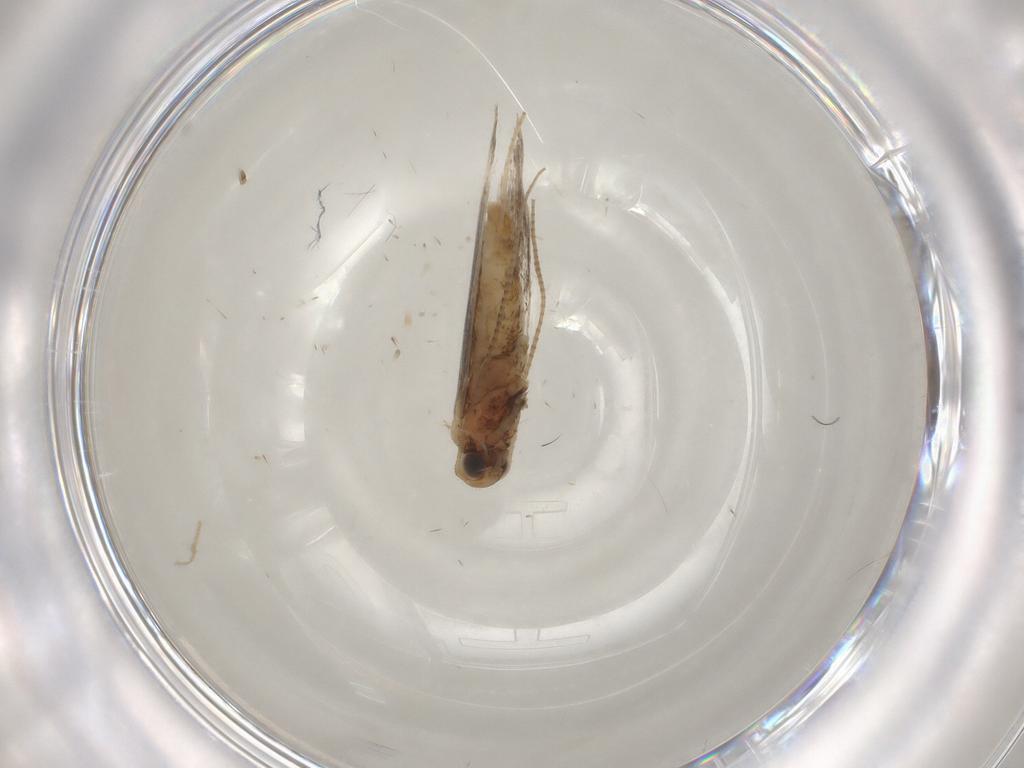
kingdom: Animalia
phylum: Arthropoda
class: Insecta
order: Lepidoptera
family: Gracillariidae
